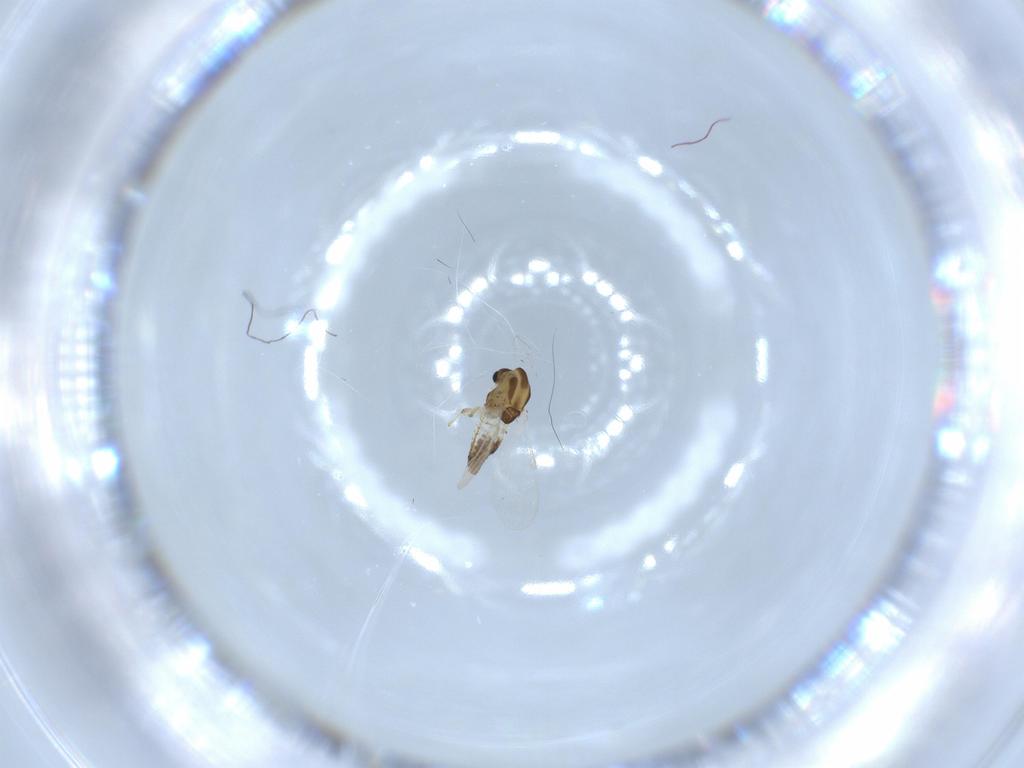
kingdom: Animalia
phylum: Arthropoda
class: Insecta
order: Diptera
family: Chironomidae
